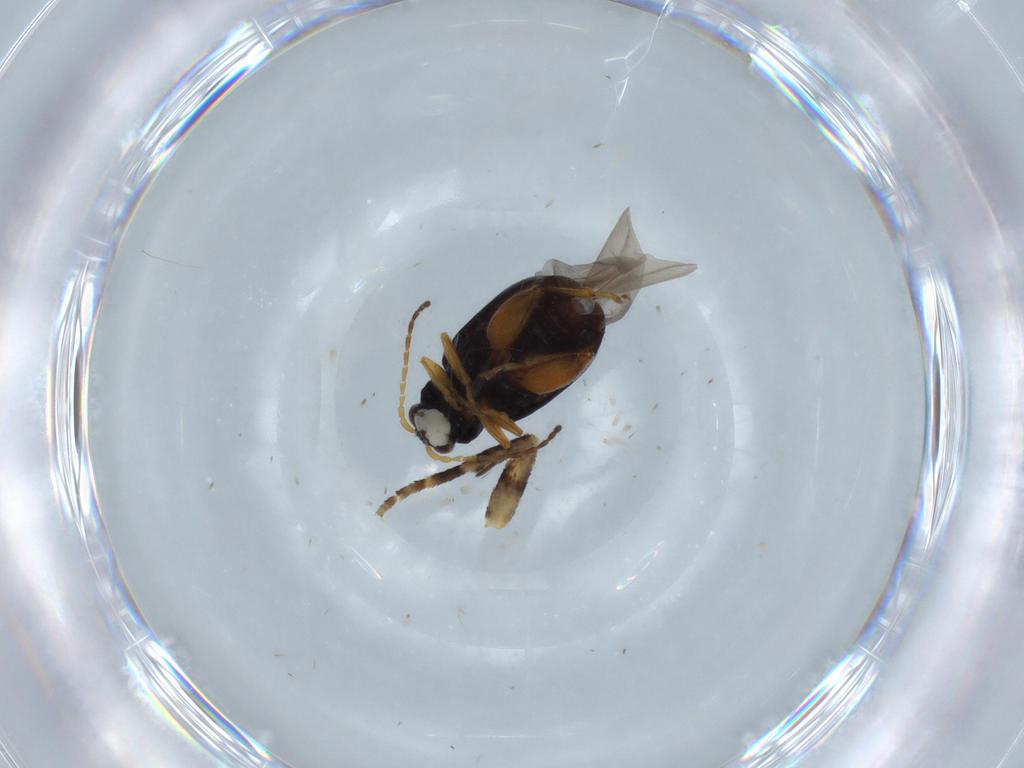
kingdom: Animalia
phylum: Arthropoda
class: Insecta
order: Coleoptera
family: Chrysomelidae
